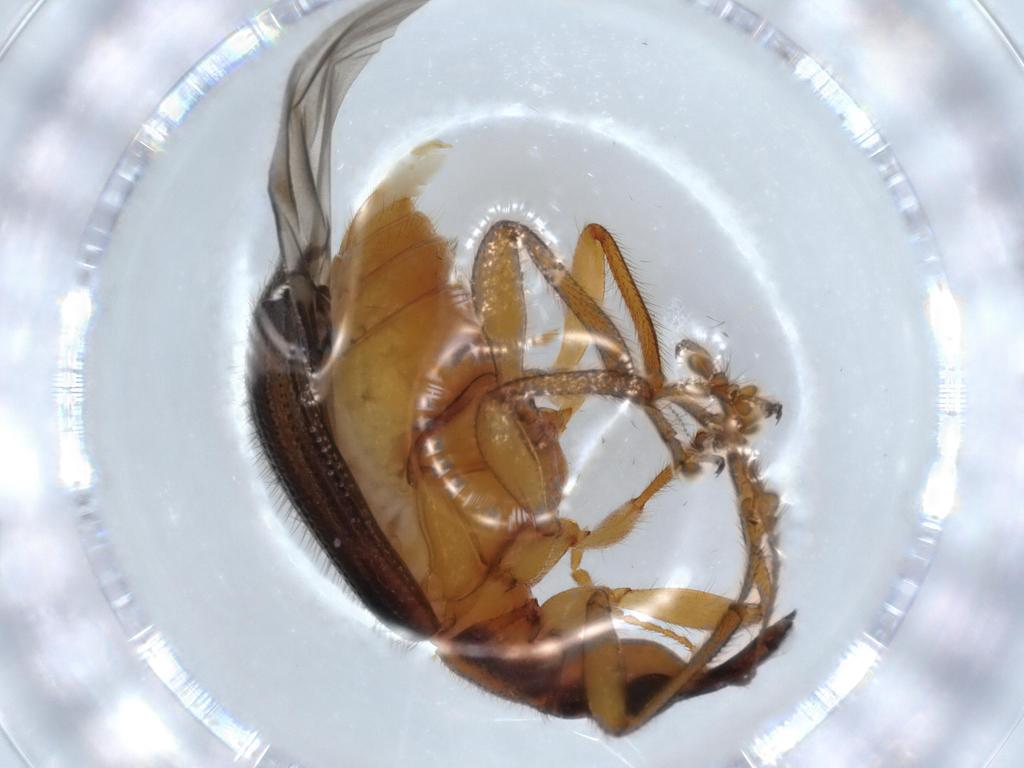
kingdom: Animalia
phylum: Arthropoda
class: Insecta
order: Coleoptera
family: Attelabidae
